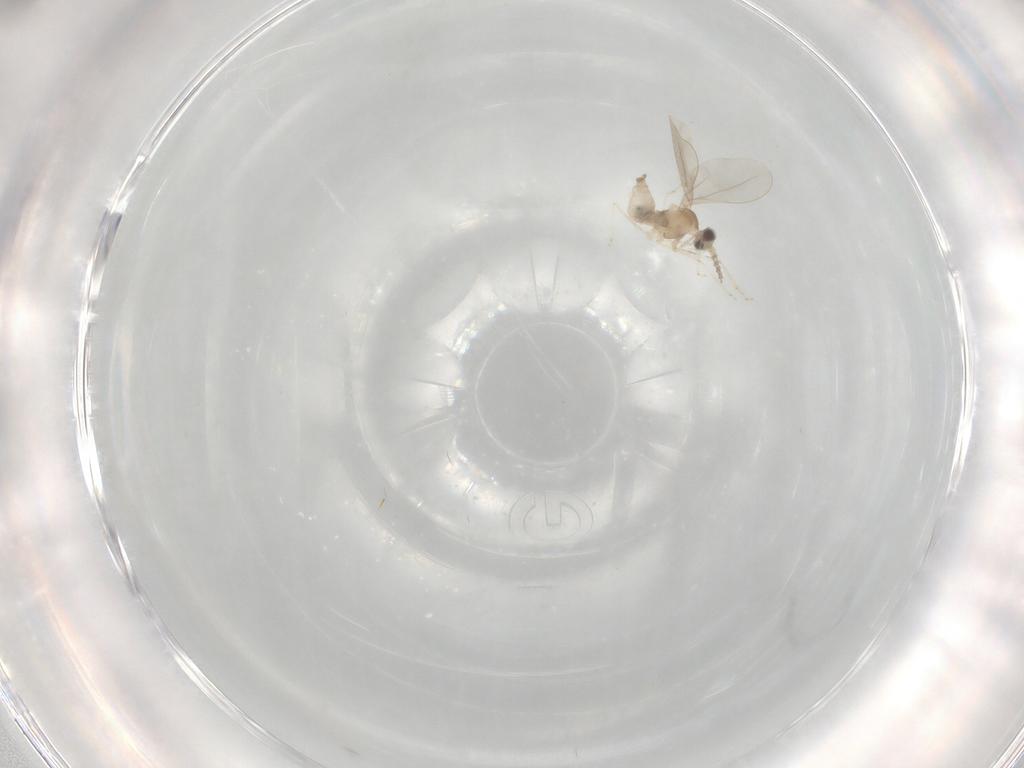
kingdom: Animalia
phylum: Arthropoda
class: Insecta
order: Diptera
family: Cecidomyiidae
